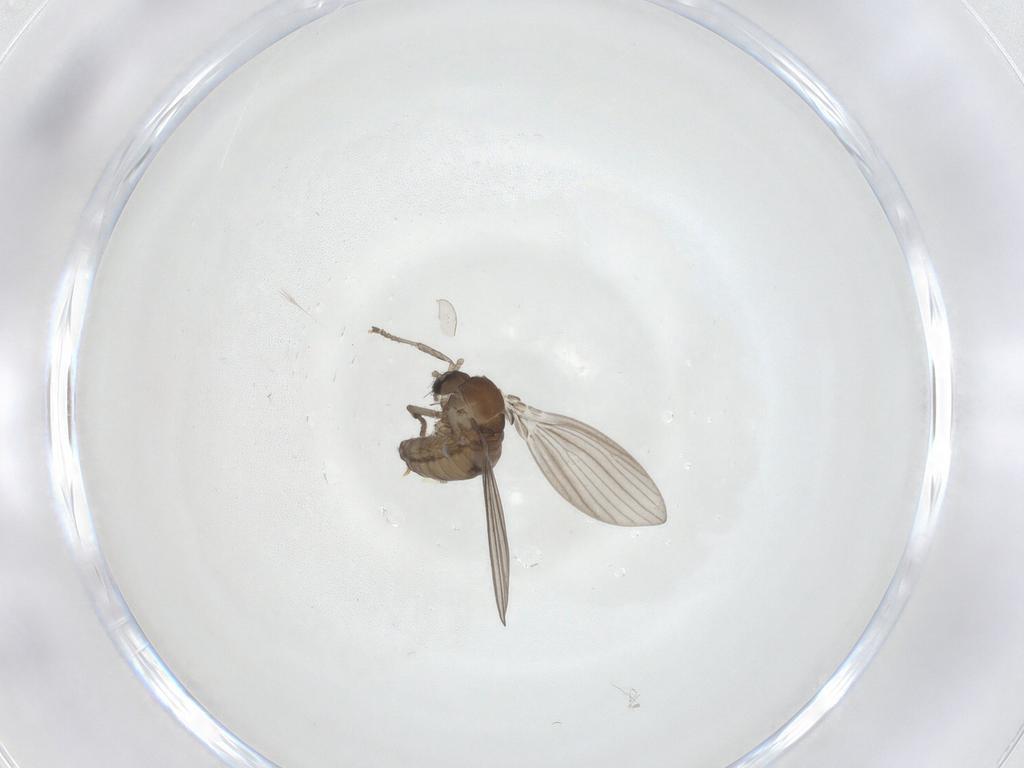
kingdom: Animalia
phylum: Arthropoda
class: Insecta
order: Diptera
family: Psychodidae
